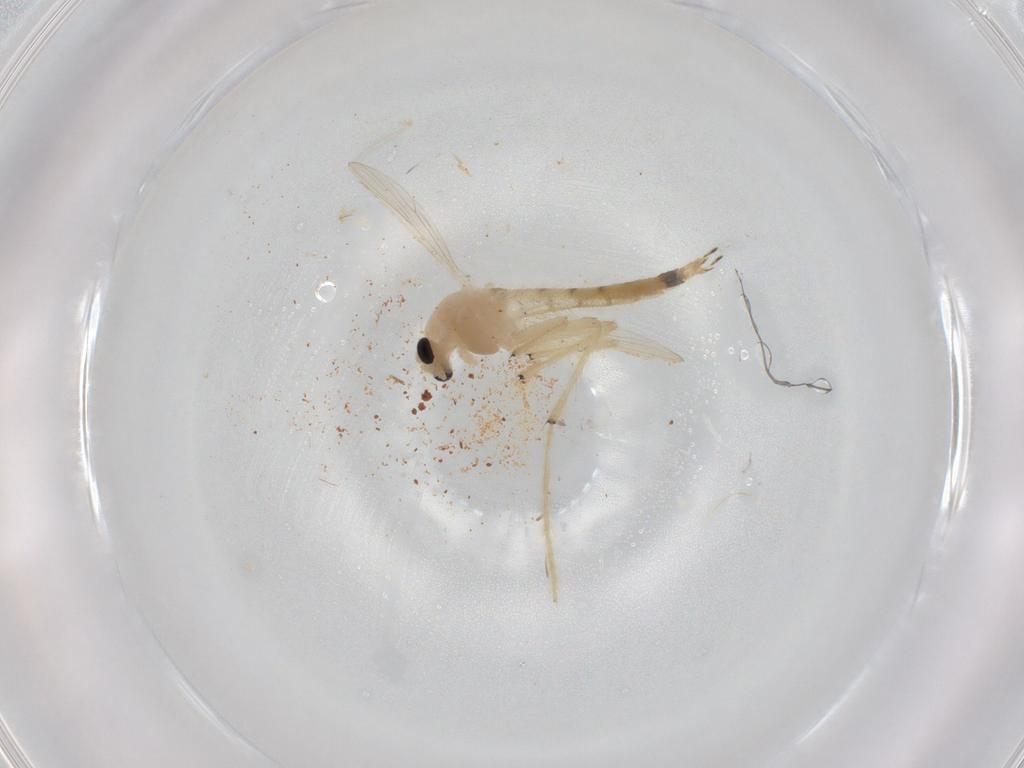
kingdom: Animalia
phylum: Arthropoda
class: Insecta
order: Diptera
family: Chironomidae
